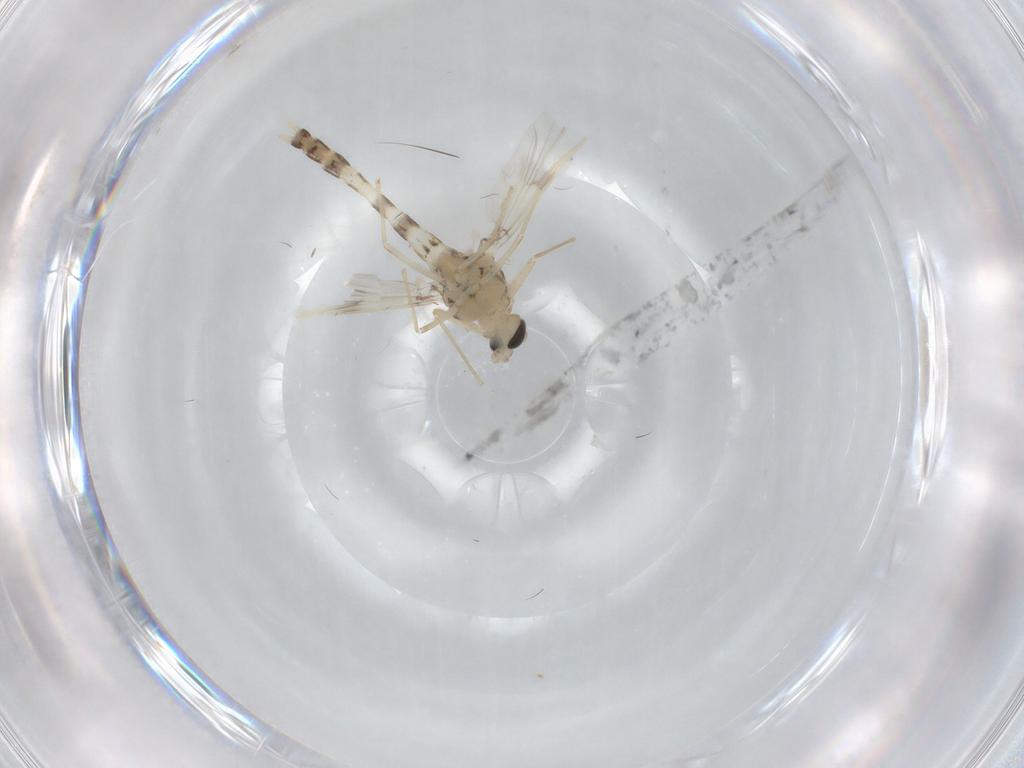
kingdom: Animalia
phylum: Arthropoda
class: Insecta
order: Diptera
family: Chironomidae
